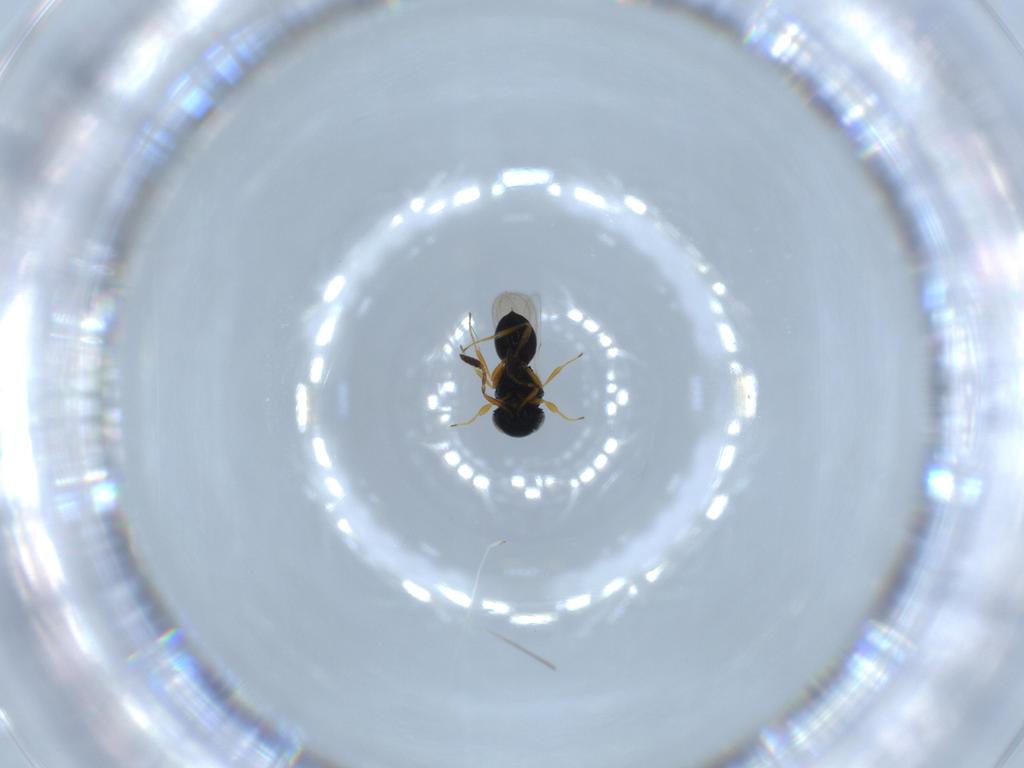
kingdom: Animalia
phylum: Arthropoda
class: Insecta
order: Hymenoptera
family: Scelionidae
